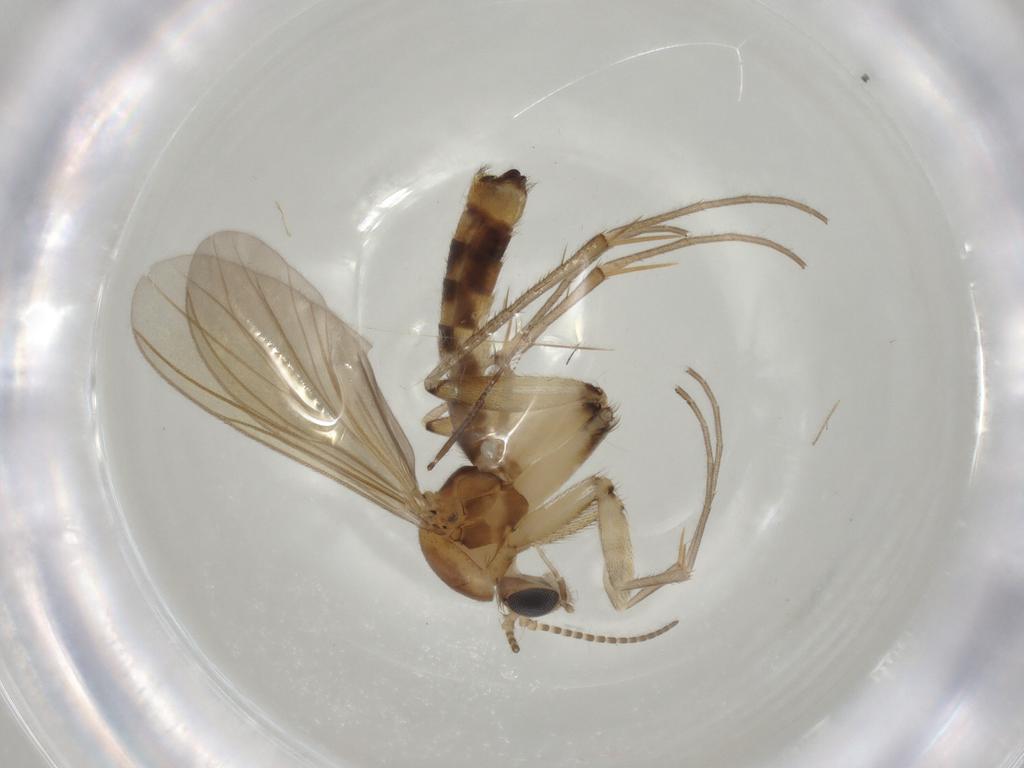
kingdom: Animalia
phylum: Arthropoda
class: Insecta
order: Diptera
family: Mycetophilidae
